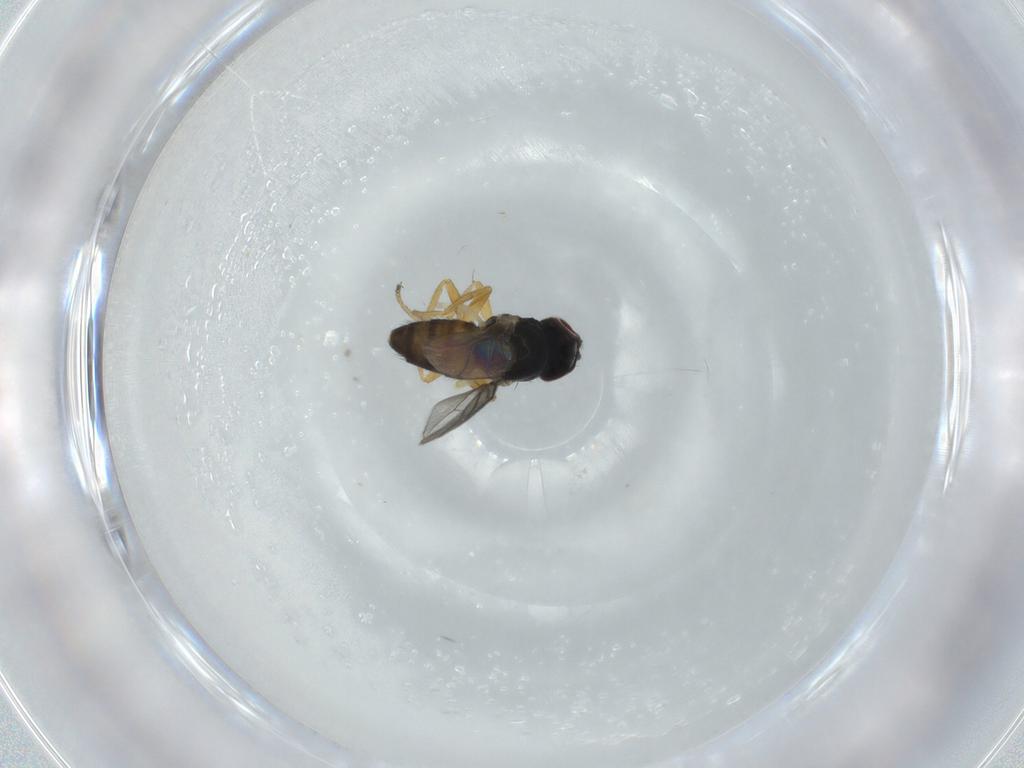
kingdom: Animalia
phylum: Arthropoda
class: Insecta
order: Diptera
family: Chloropidae
